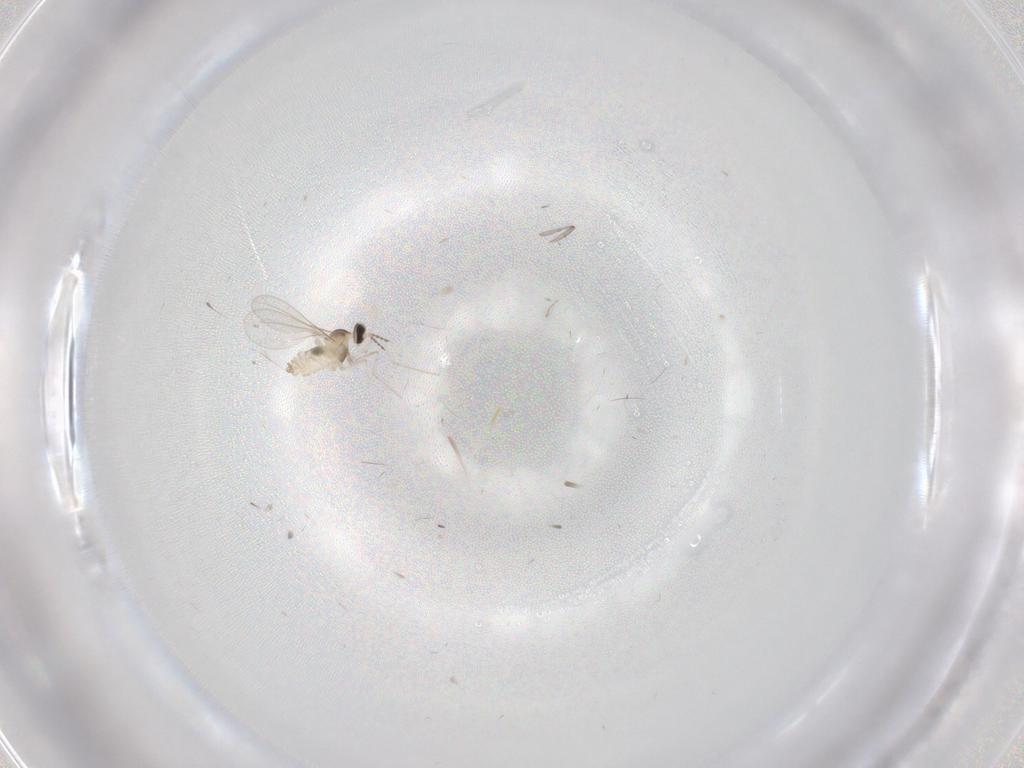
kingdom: Animalia
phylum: Arthropoda
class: Insecta
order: Diptera
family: Cecidomyiidae
